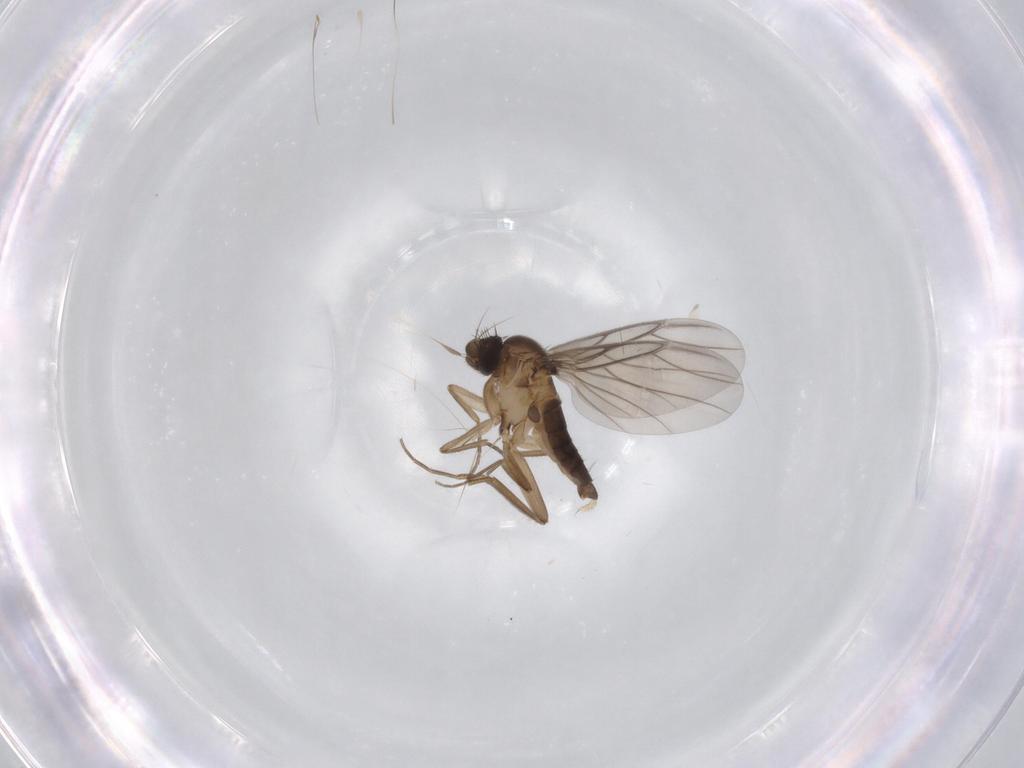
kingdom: Animalia
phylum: Arthropoda
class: Insecta
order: Diptera
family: Phoridae
